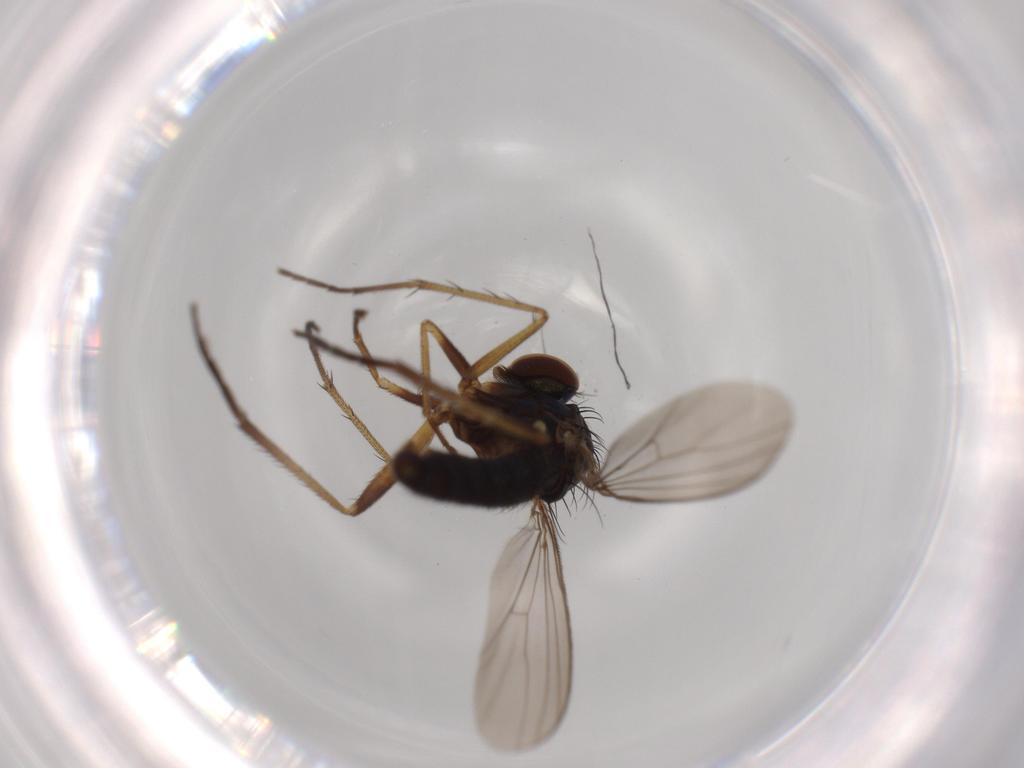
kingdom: Animalia
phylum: Arthropoda
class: Insecta
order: Diptera
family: Dolichopodidae
